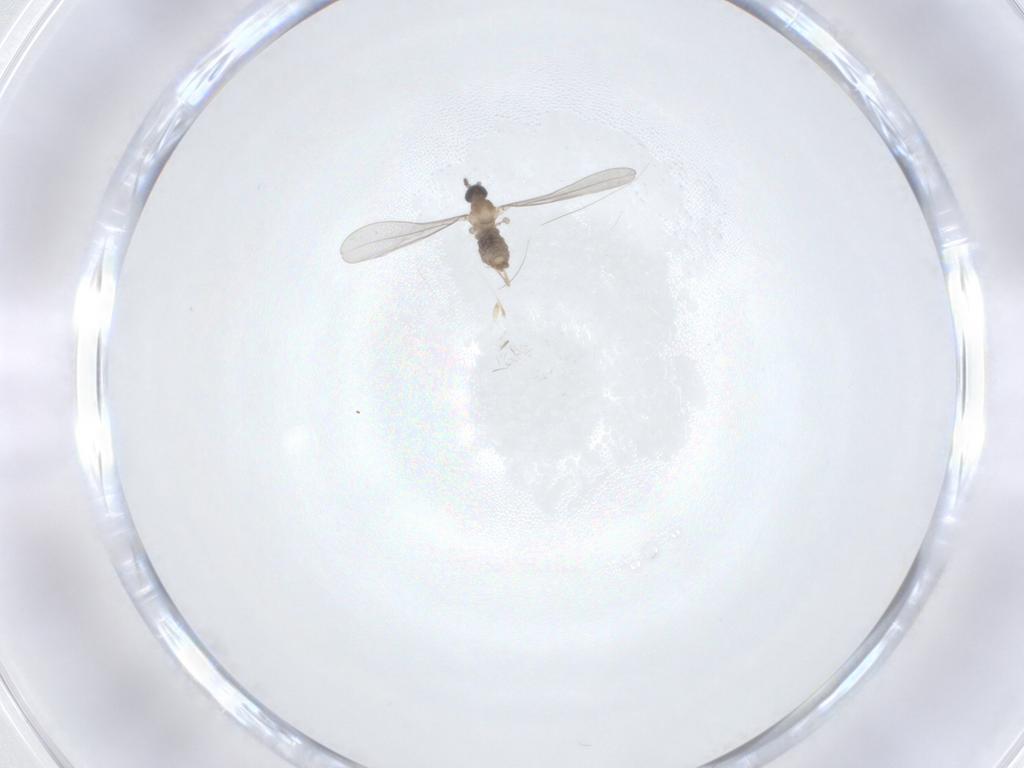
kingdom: Animalia
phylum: Arthropoda
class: Insecta
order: Diptera
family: Cecidomyiidae
